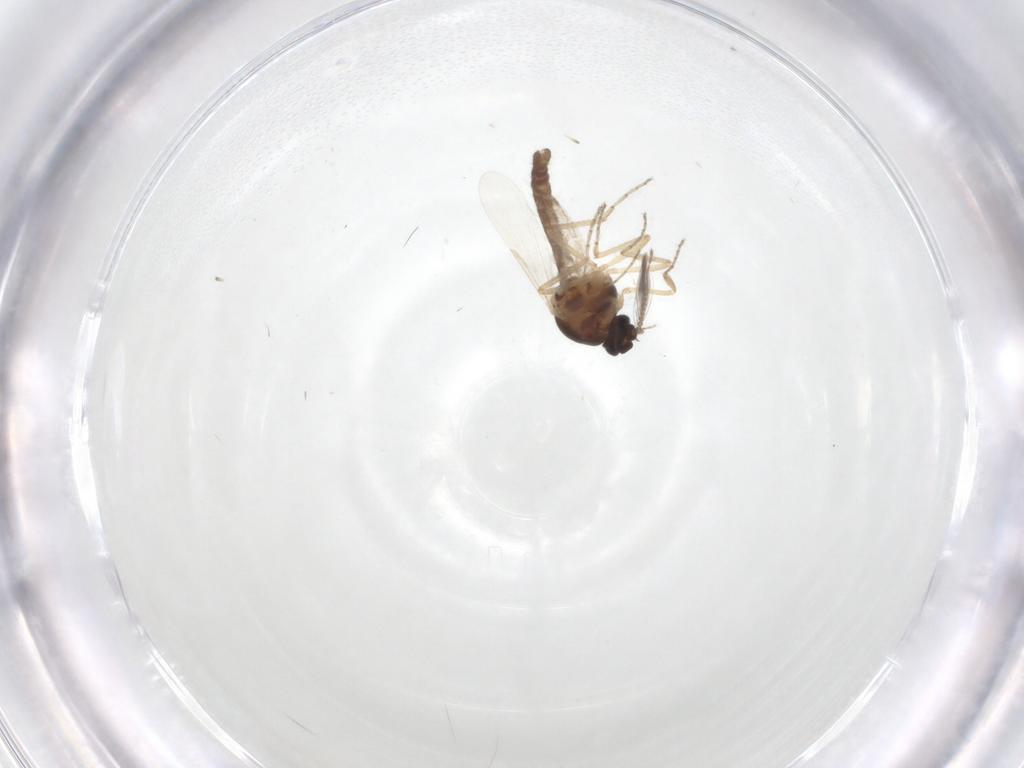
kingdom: Animalia
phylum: Arthropoda
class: Insecta
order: Diptera
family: Ceratopogonidae
